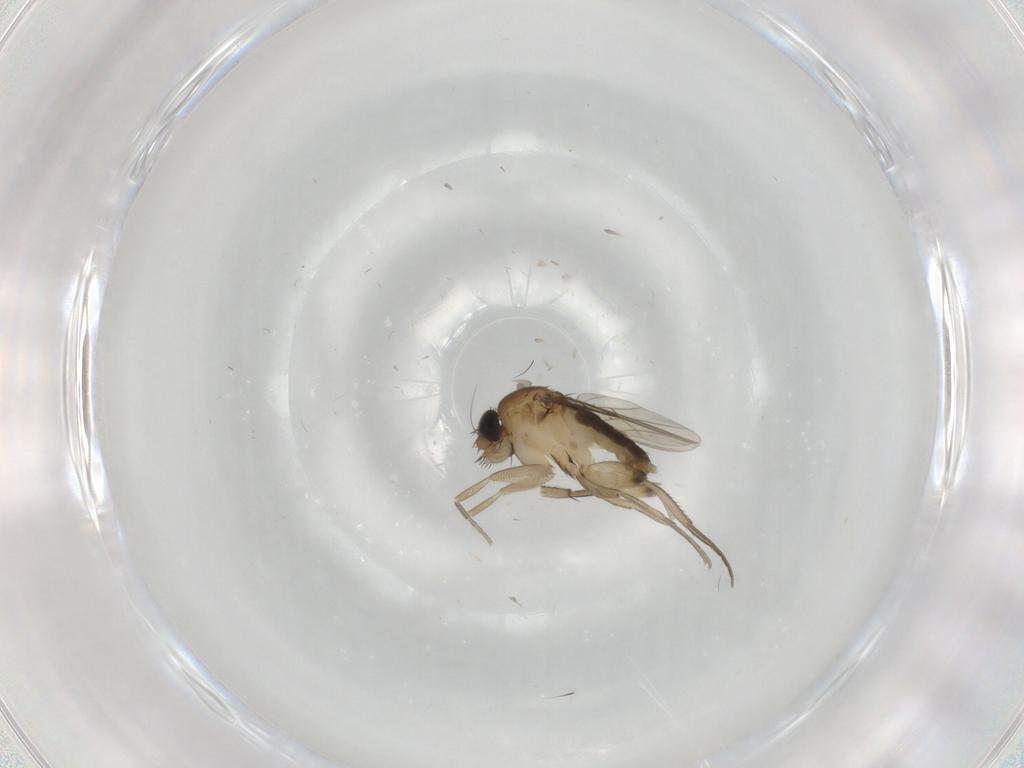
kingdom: Animalia
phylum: Arthropoda
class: Insecta
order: Diptera
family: Phoridae
